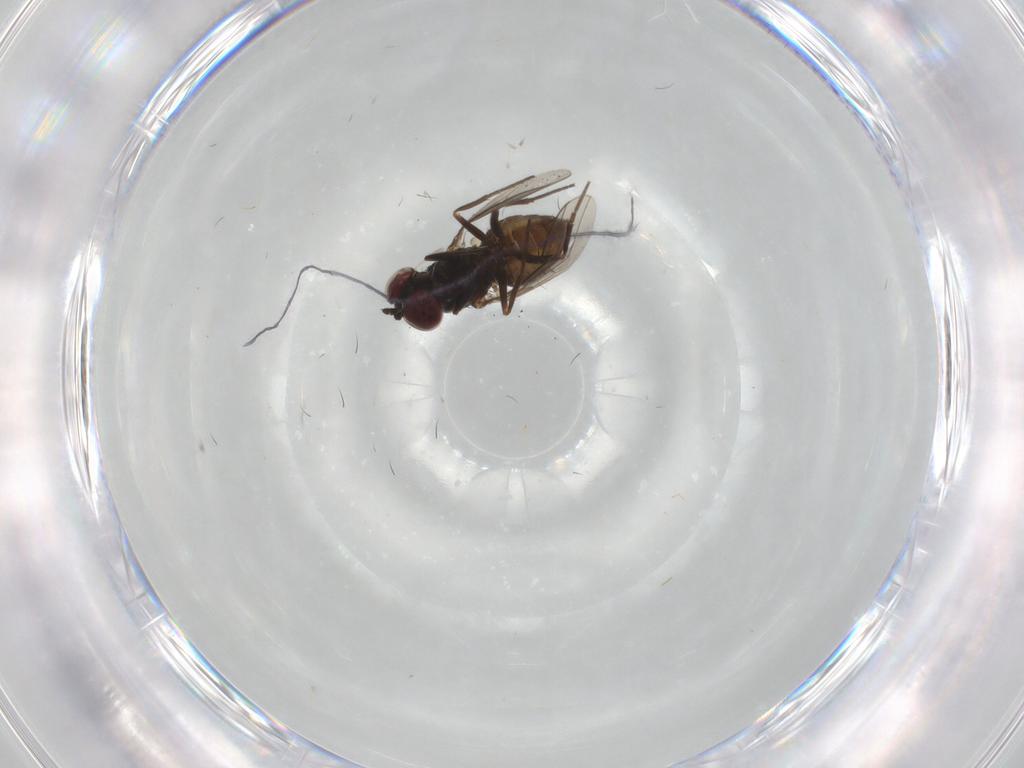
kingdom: Animalia
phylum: Arthropoda
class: Insecta
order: Diptera
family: Dolichopodidae
